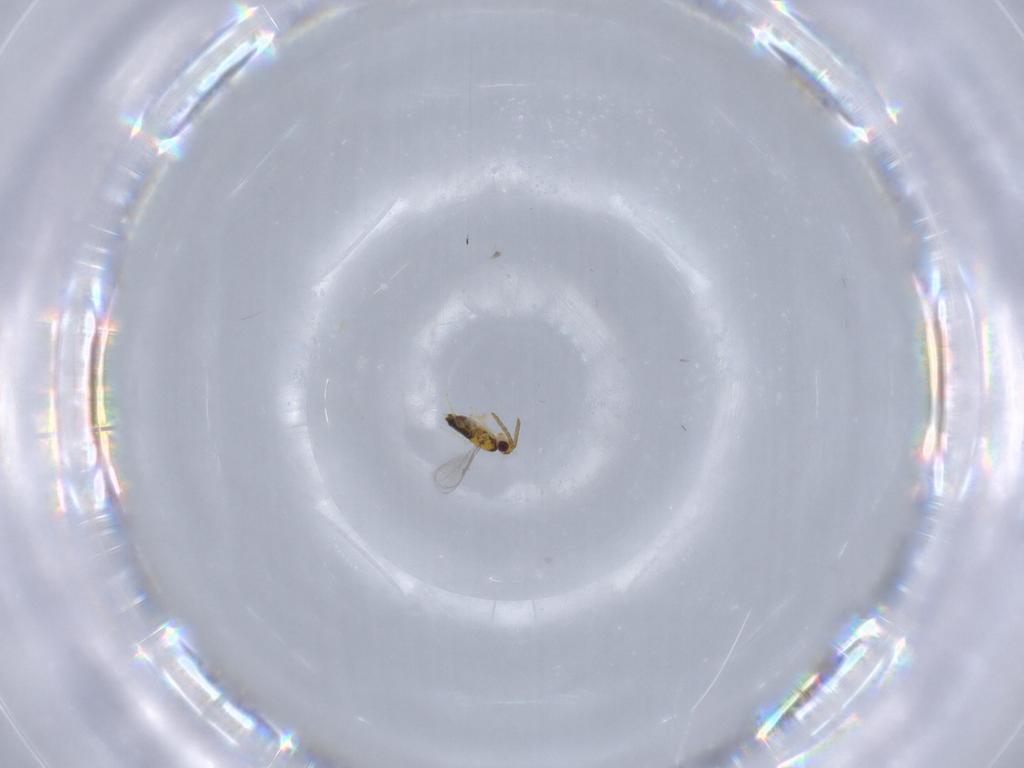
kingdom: Animalia
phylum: Arthropoda
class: Insecta
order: Hymenoptera
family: Aphelinidae
